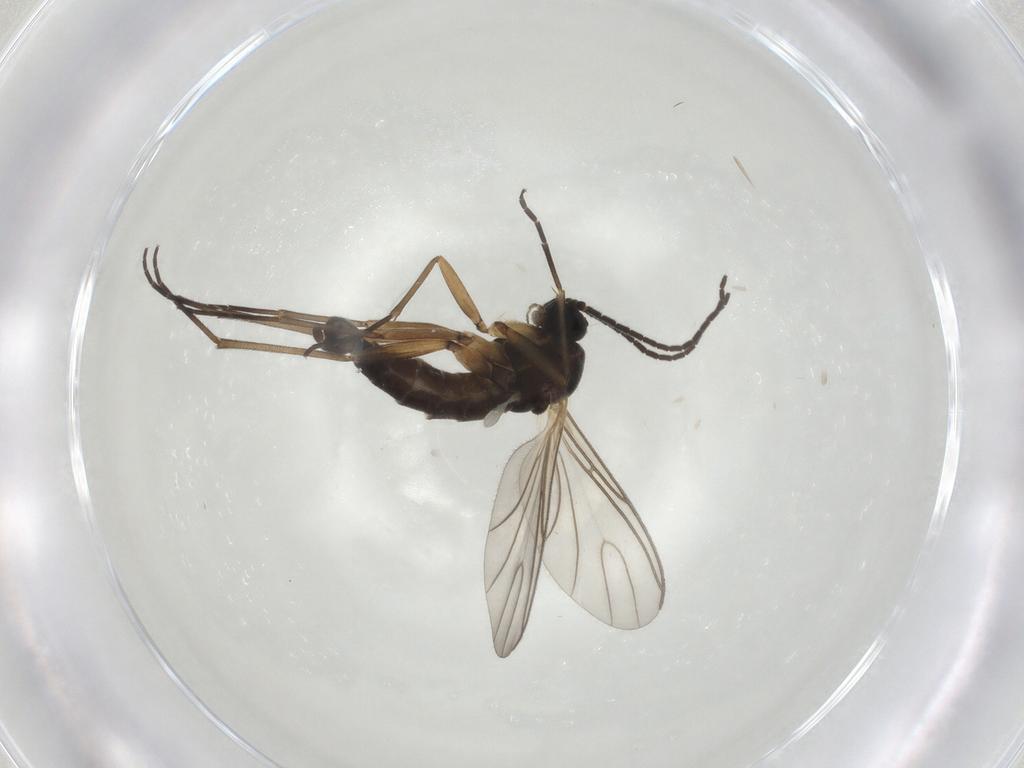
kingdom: Animalia
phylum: Arthropoda
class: Insecta
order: Diptera
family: Sciaridae
